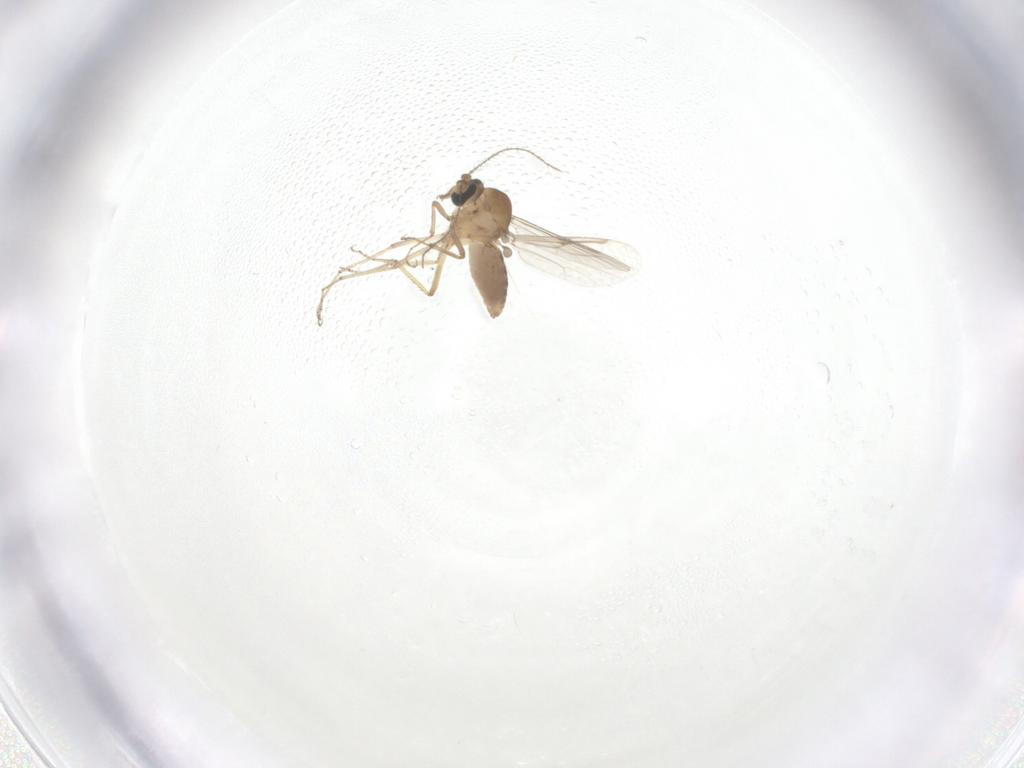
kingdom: Animalia
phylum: Arthropoda
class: Insecta
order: Diptera
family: Ceratopogonidae
